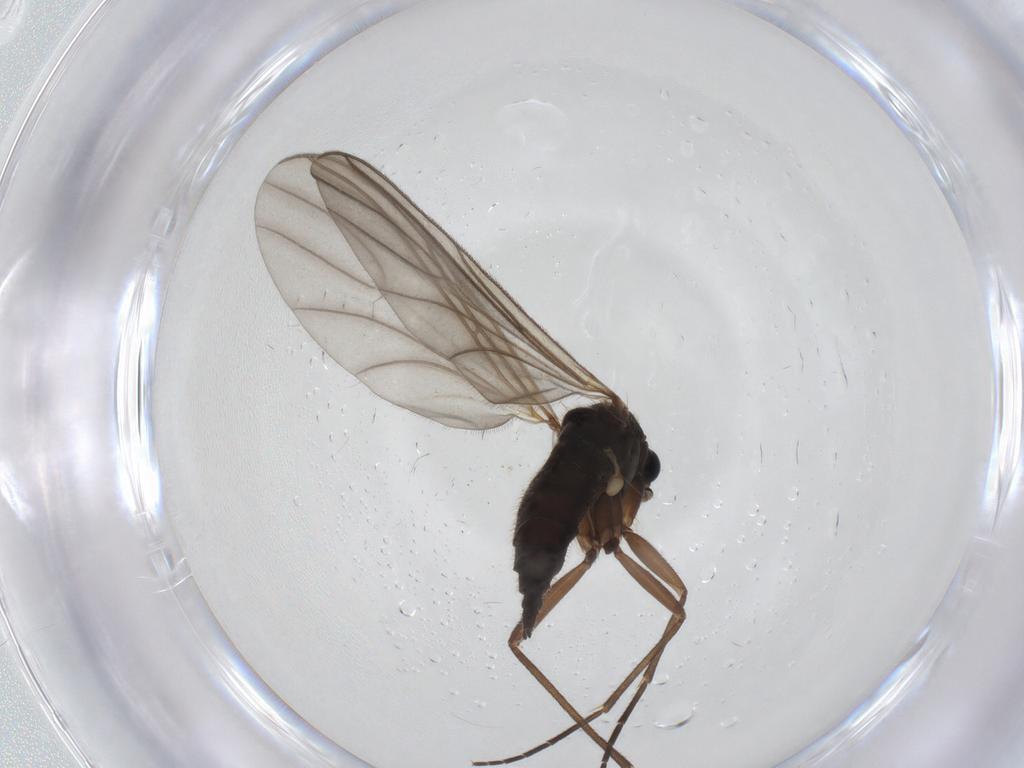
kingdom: Animalia
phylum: Arthropoda
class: Insecta
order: Diptera
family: Sciaridae
